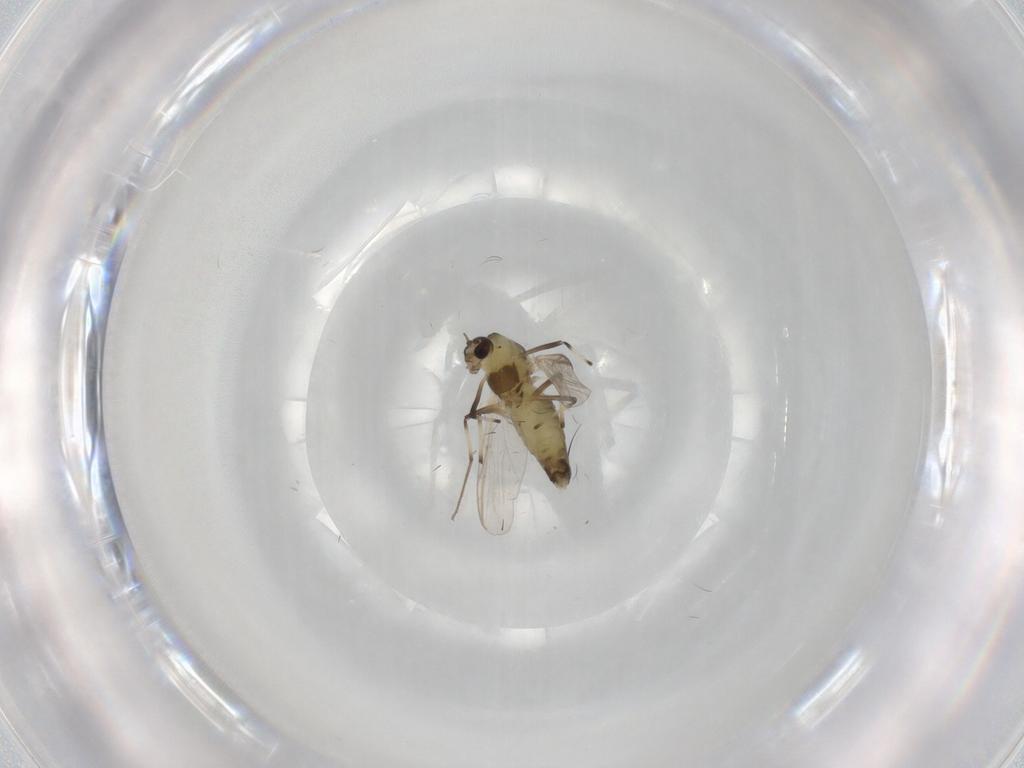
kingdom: Animalia
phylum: Arthropoda
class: Insecta
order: Diptera
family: Chironomidae
